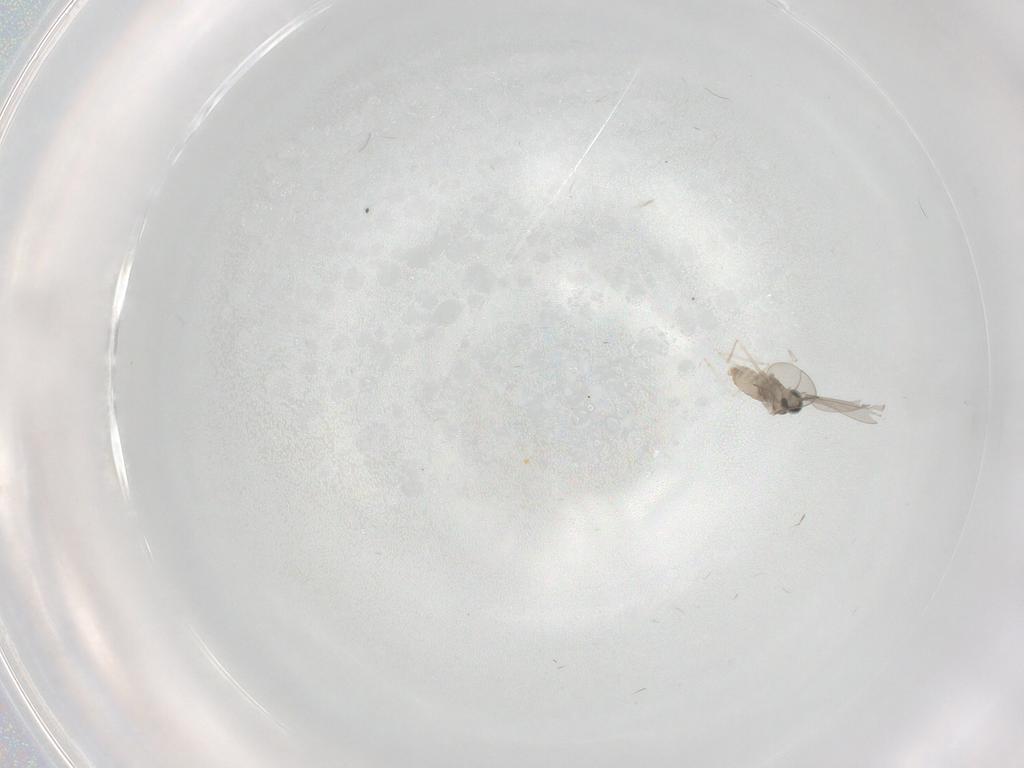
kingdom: Animalia
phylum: Arthropoda
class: Insecta
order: Diptera
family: Cecidomyiidae
